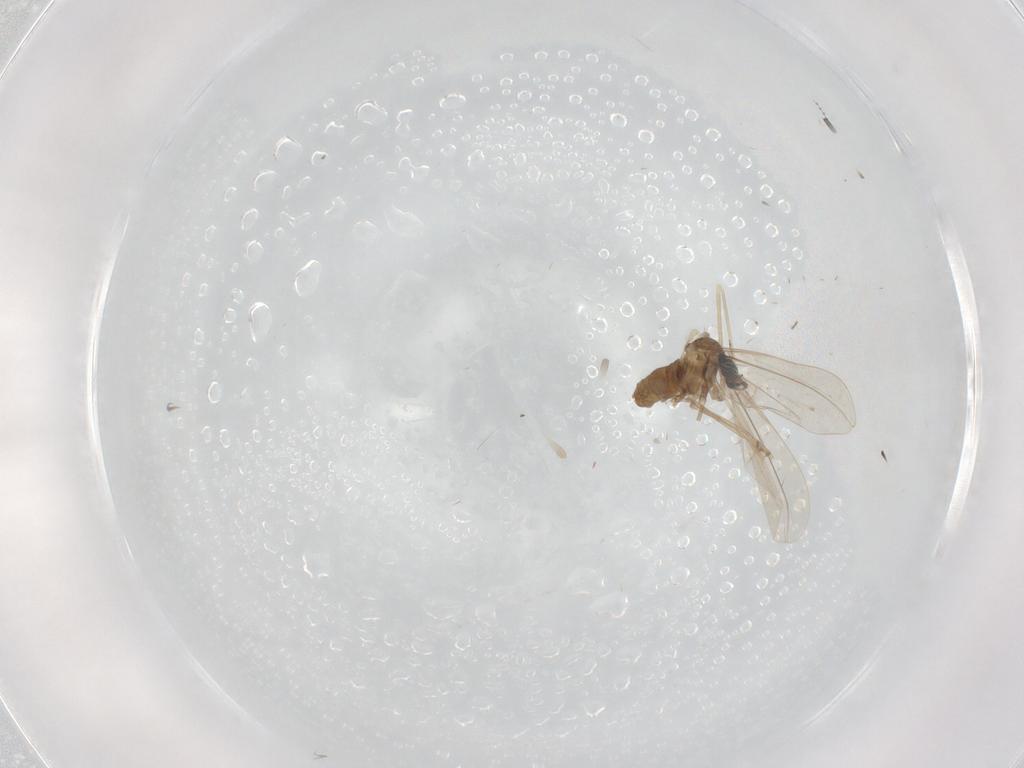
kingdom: Animalia
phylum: Arthropoda
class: Insecta
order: Diptera
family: Cecidomyiidae
